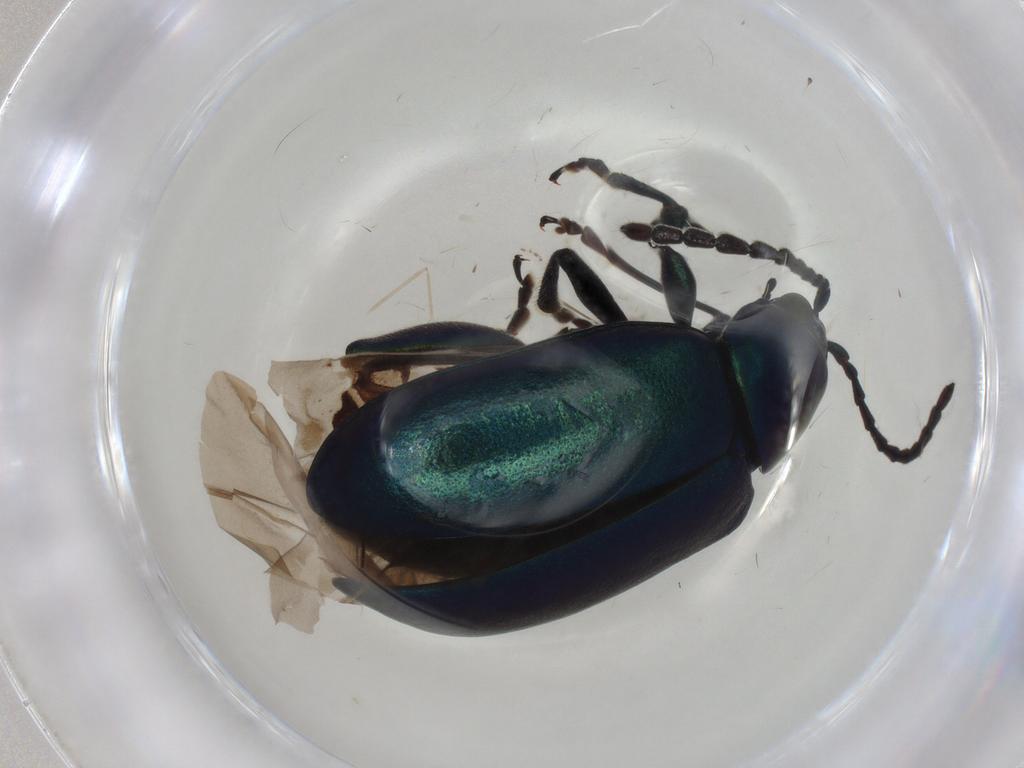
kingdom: Animalia
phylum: Arthropoda
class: Insecta
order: Coleoptera
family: Chrysomelidae
